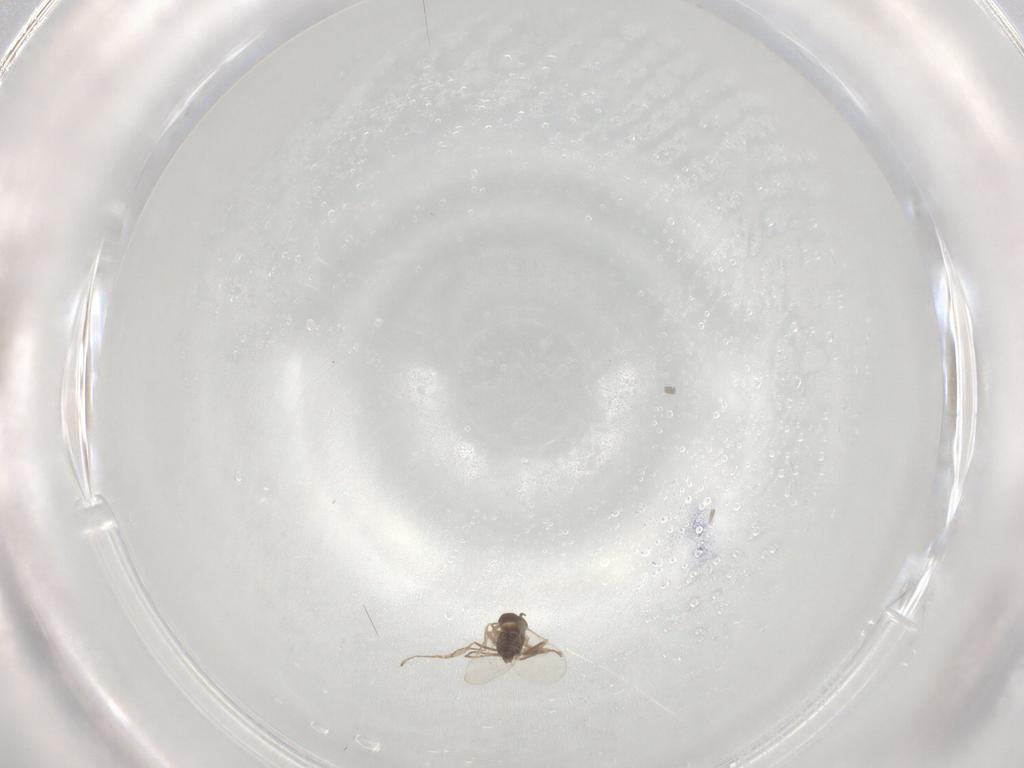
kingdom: Animalia
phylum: Arthropoda
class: Insecta
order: Diptera
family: Cecidomyiidae
